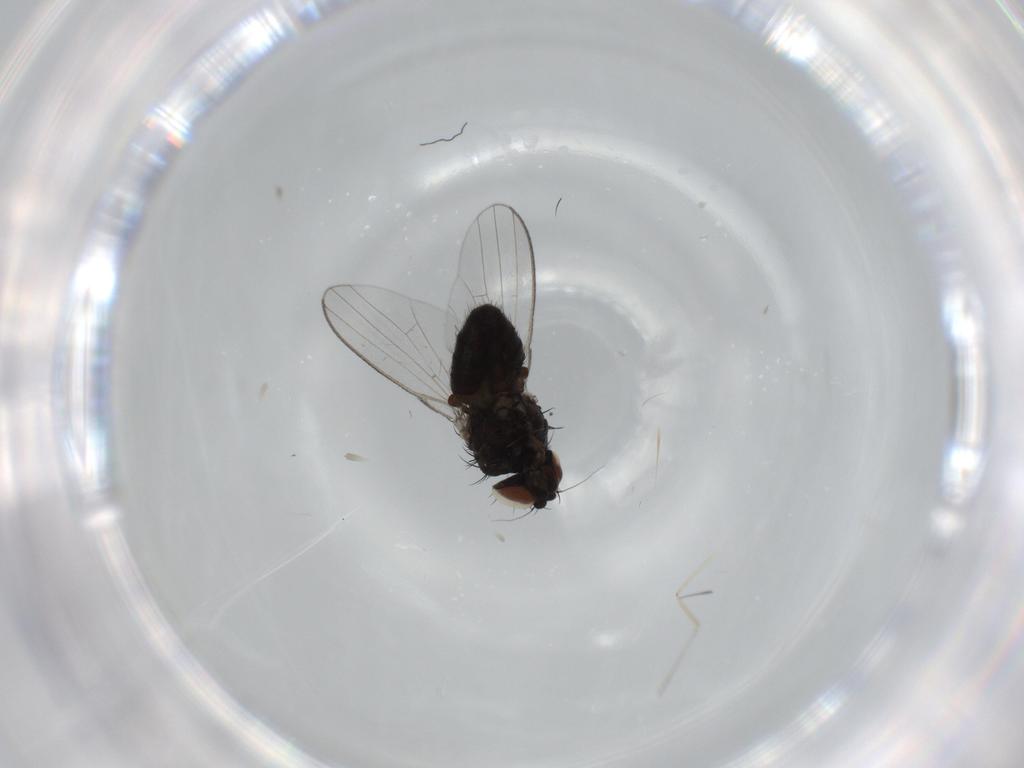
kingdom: Animalia
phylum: Arthropoda
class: Insecta
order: Diptera
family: Milichiidae
